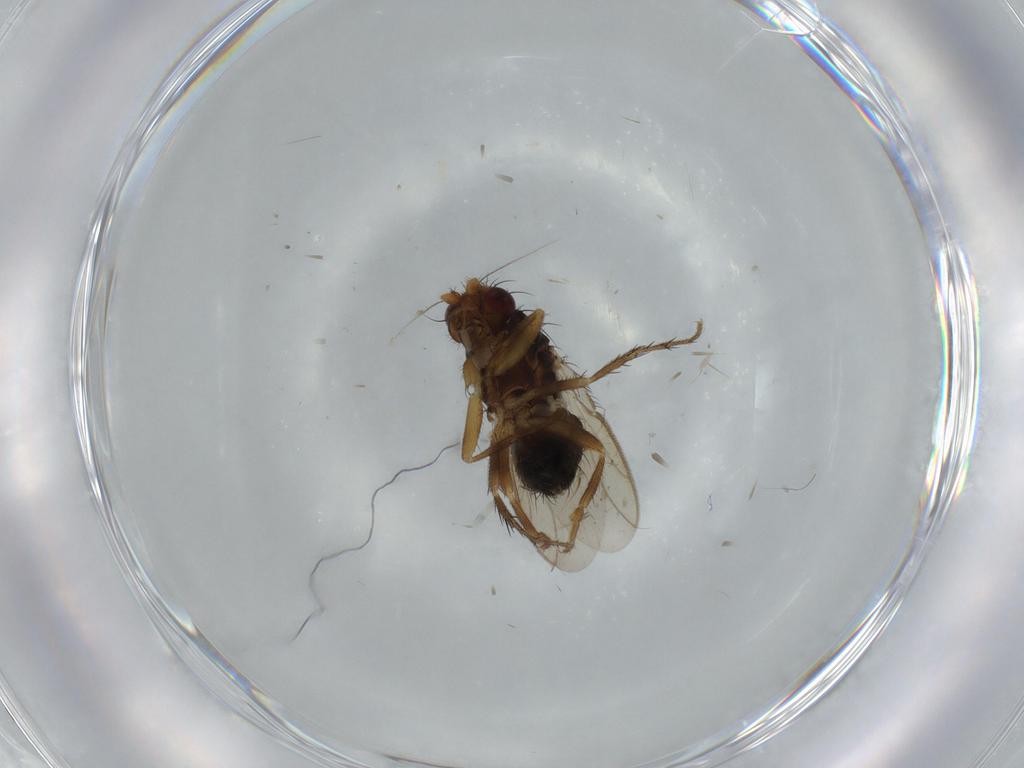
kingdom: Animalia
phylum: Arthropoda
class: Insecta
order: Diptera
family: Sphaeroceridae
